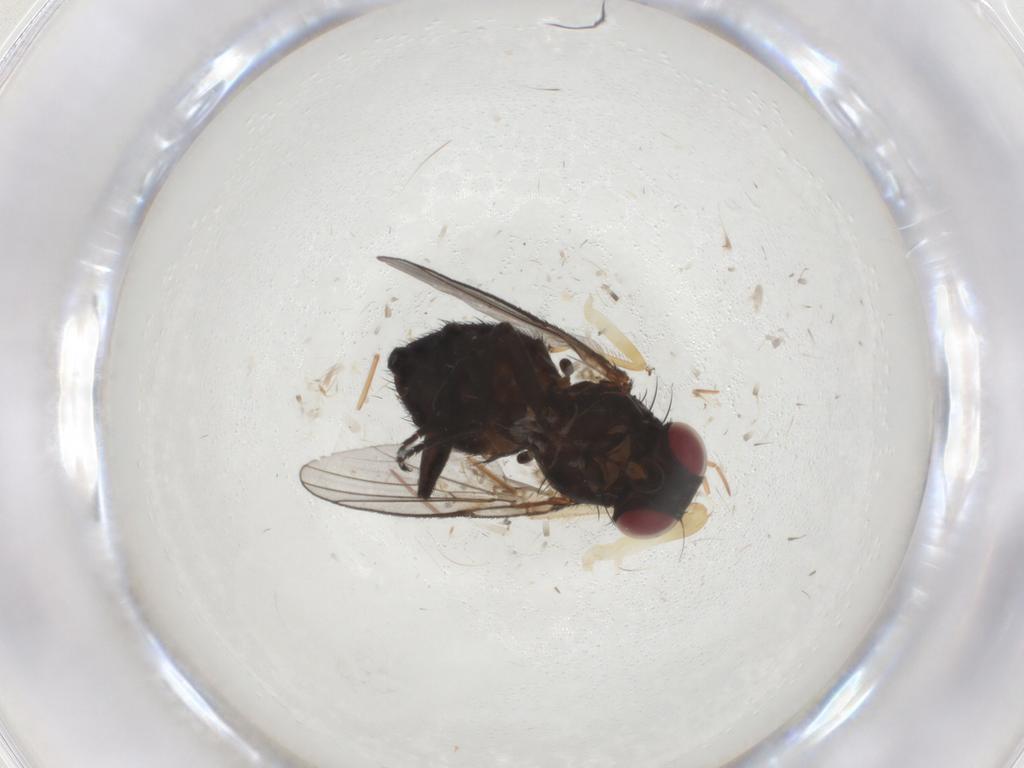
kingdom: Animalia
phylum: Arthropoda
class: Insecta
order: Diptera
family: Agromyzidae
